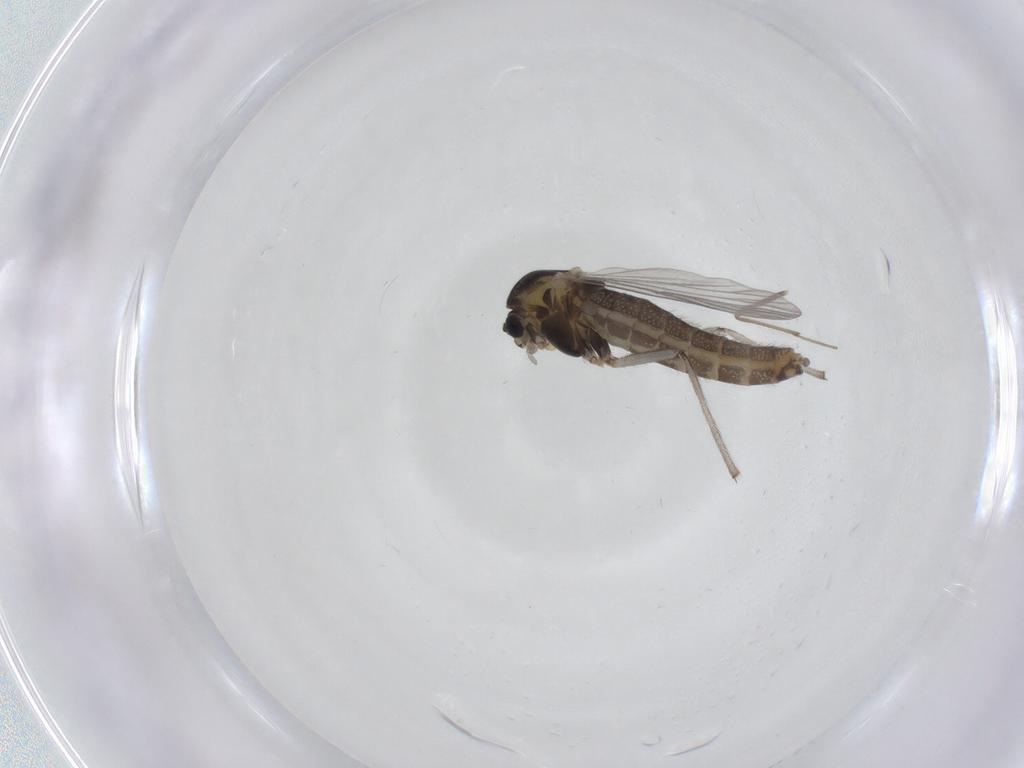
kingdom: Animalia
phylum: Arthropoda
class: Insecta
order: Diptera
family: Chironomidae
